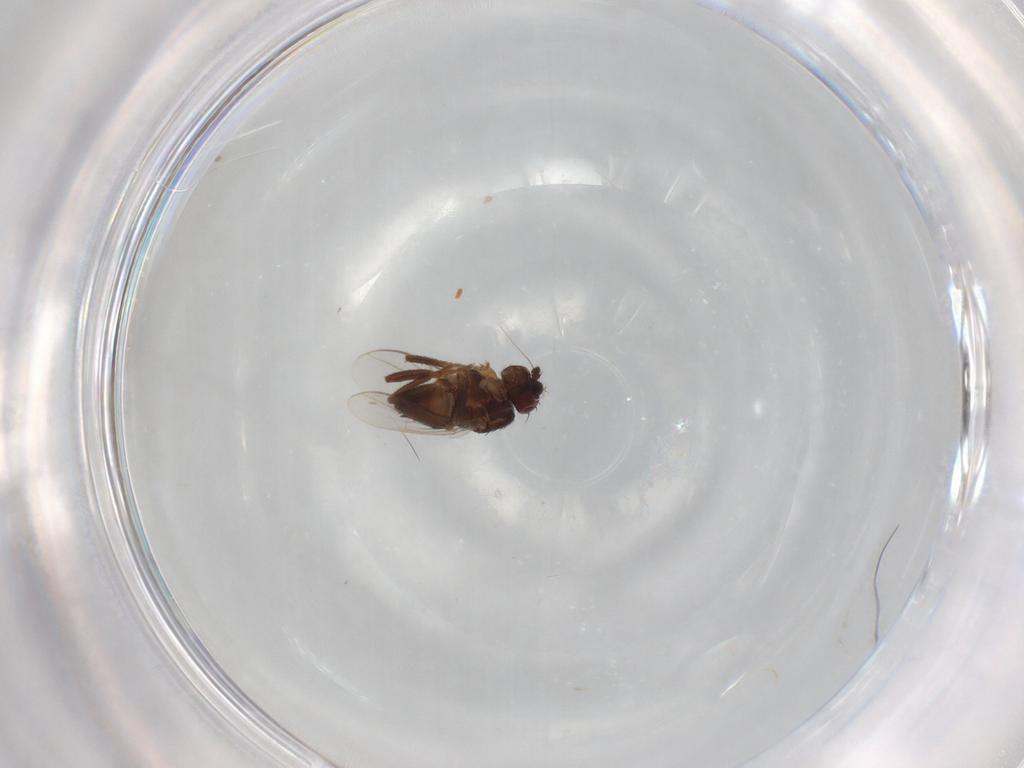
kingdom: Animalia
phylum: Arthropoda
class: Insecta
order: Diptera
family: Sphaeroceridae
